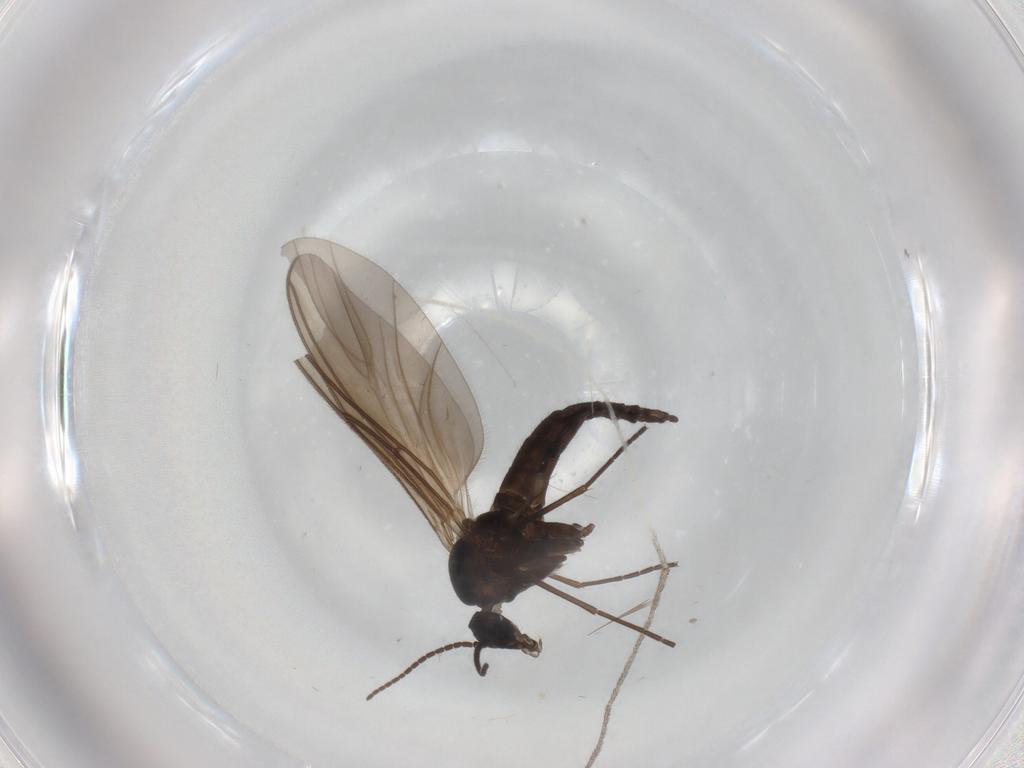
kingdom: Animalia
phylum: Arthropoda
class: Insecta
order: Diptera
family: Sciaridae
